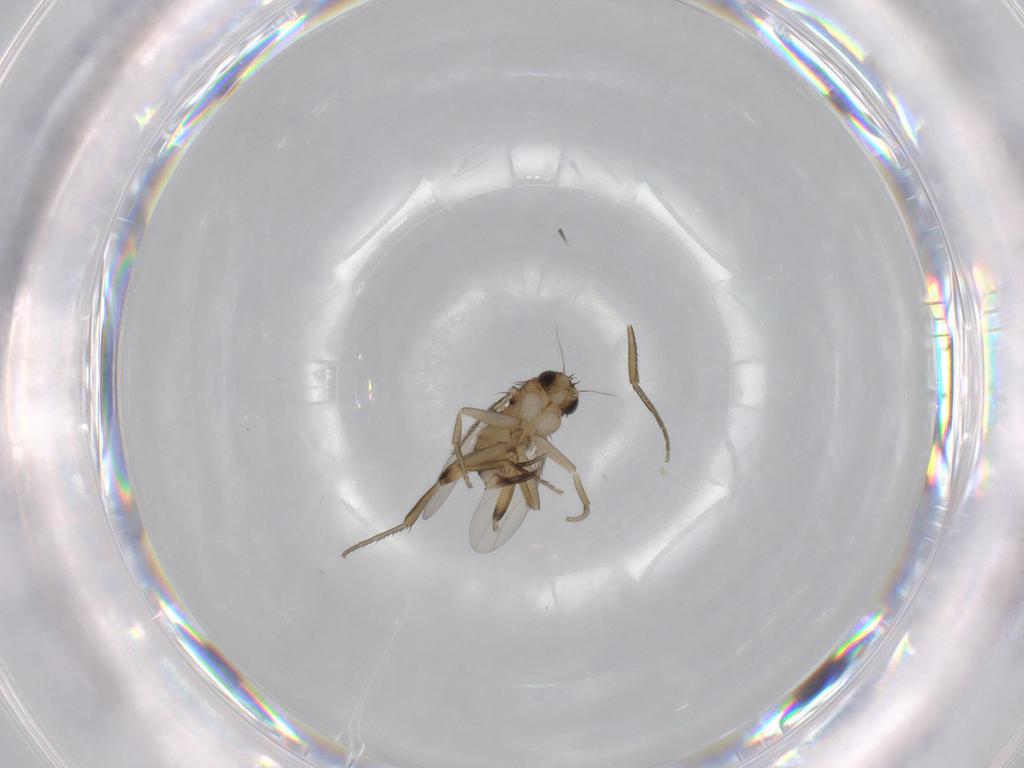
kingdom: Animalia
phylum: Arthropoda
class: Insecta
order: Diptera
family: Phoridae
